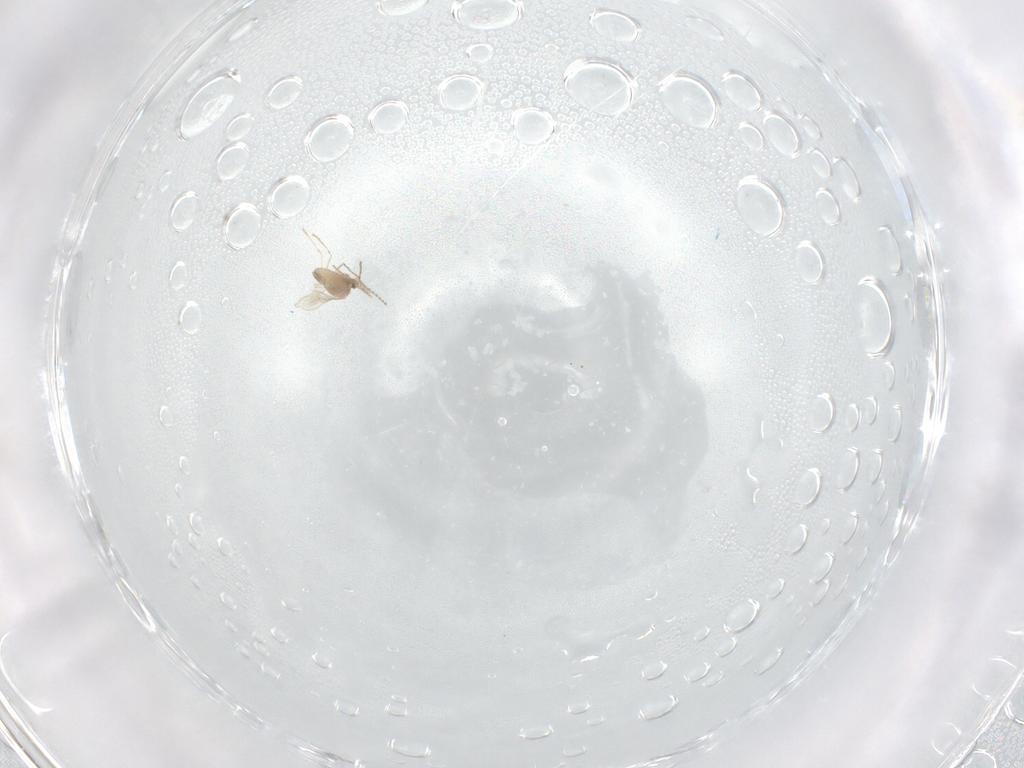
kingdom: Animalia
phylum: Arthropoda
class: Insecta
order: Diptera
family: Cecidomyiidae
